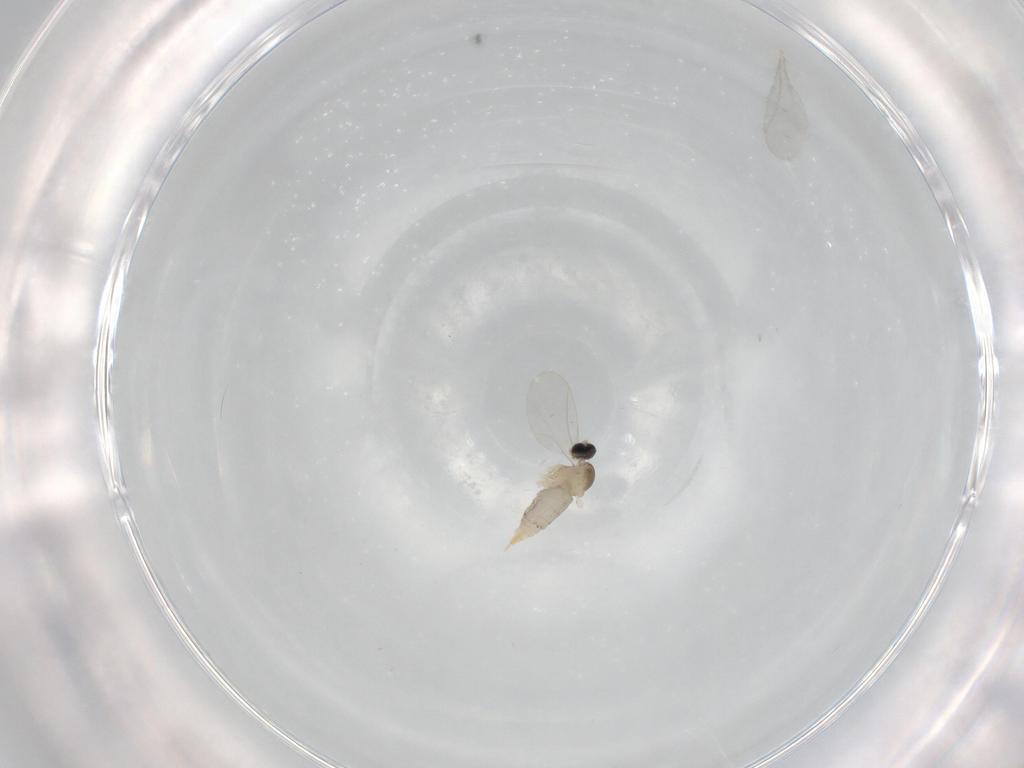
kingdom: Animalia
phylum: Arthropoda
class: Insecta
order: Diptera
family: Cecidomyiidae
